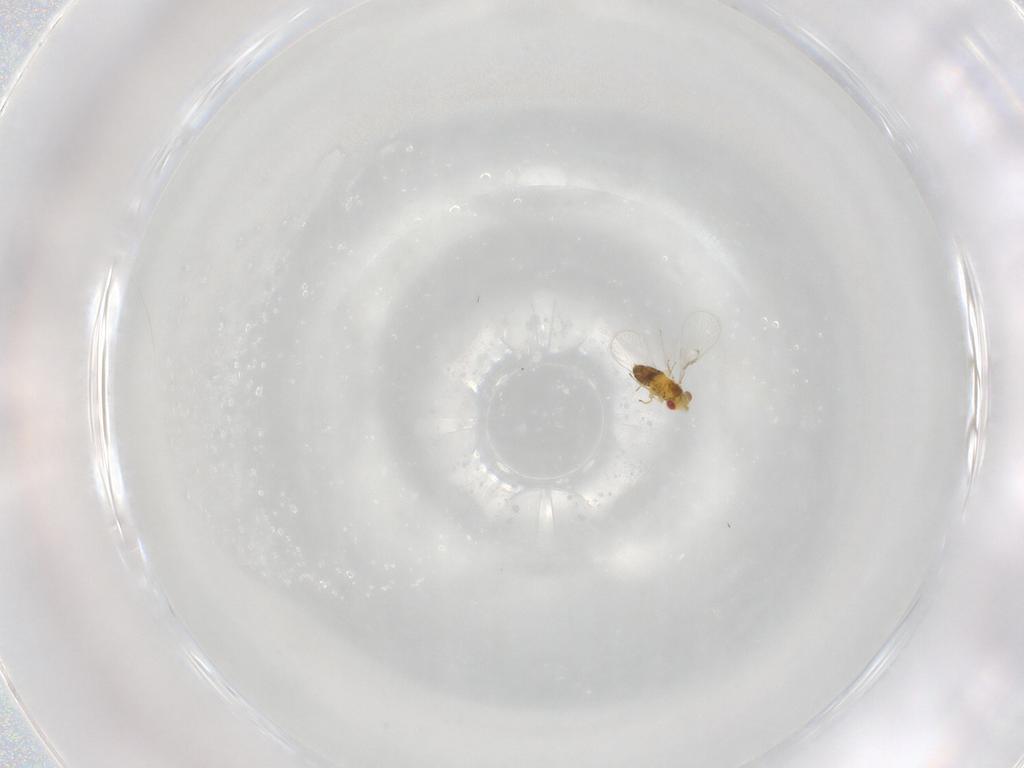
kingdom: Animalia
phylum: Arthropoda
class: Insecta
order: Hymenoptera
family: Trichogrammatidae
